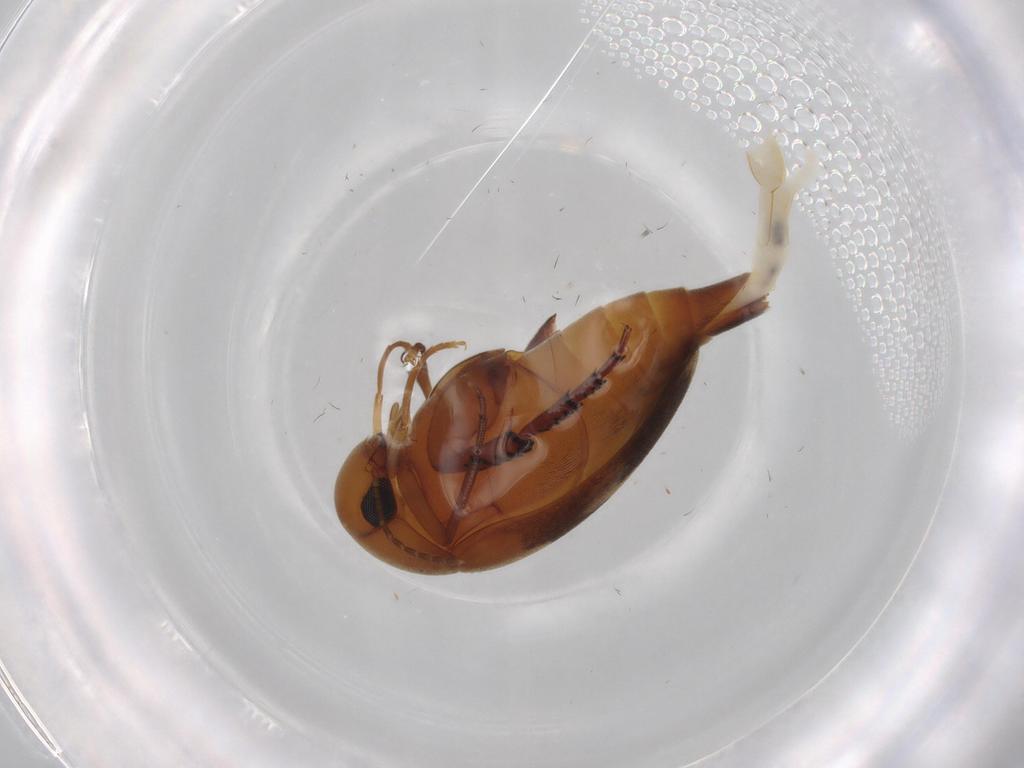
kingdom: Animalia
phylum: Arthropoda
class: Insecta
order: Coleoptera
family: Mordellidae
